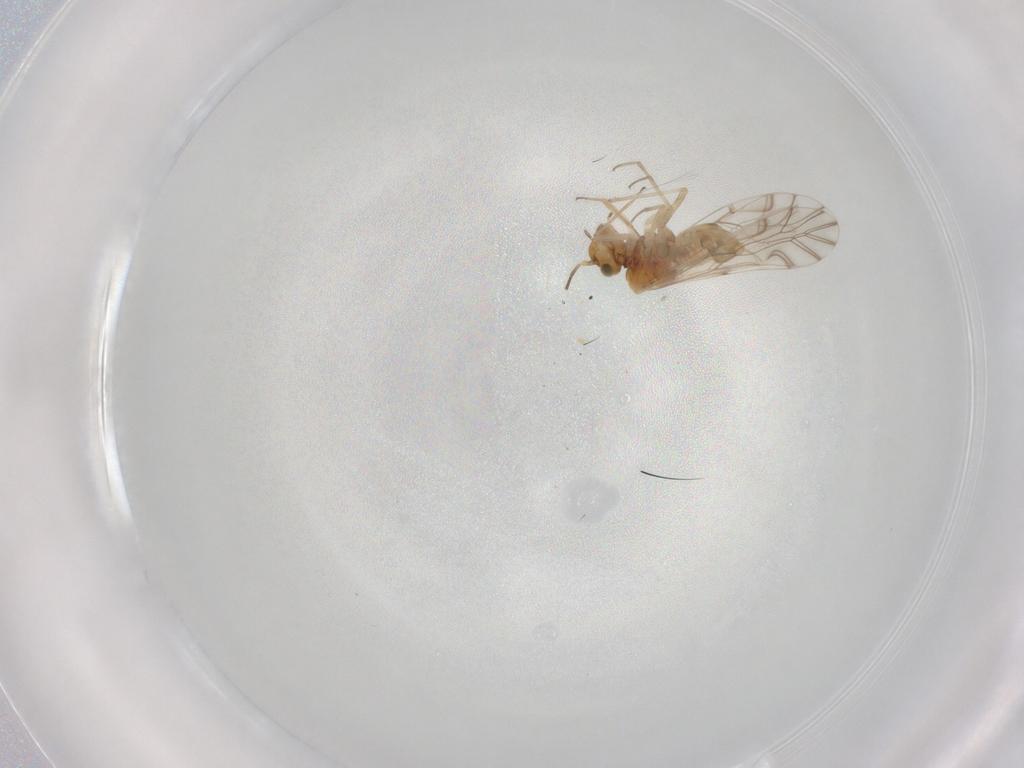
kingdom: Animalia
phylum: Arthropoda
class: Insecta
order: Psocodea
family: Lachesillidae
